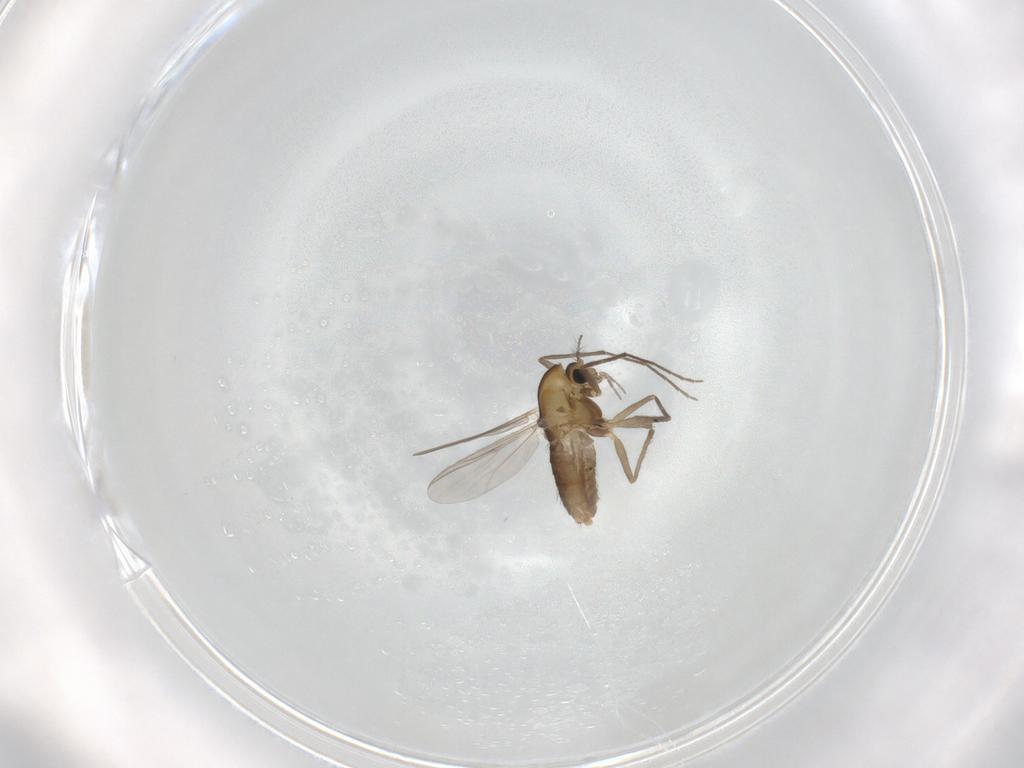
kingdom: Animalia
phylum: Arthropoda
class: Insecta
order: Diptera
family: Chironomidae
